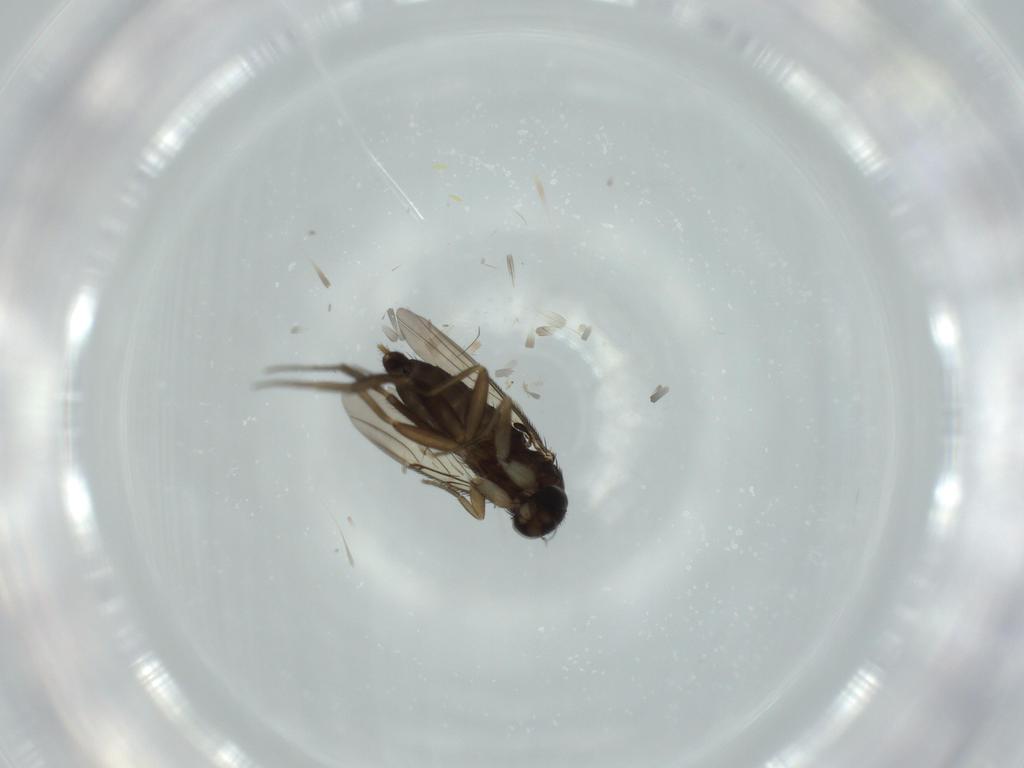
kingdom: Animalia
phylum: Arthropoda
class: Insecta
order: Diptera
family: Phoridae
